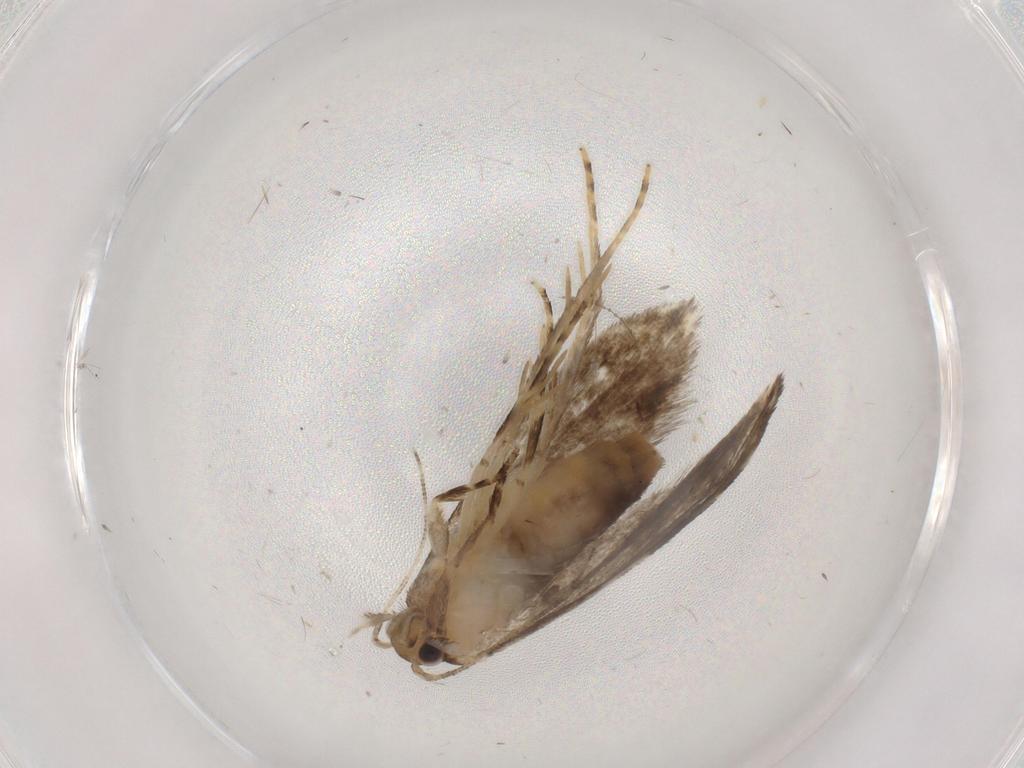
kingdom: Animalia
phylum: Arthropoda
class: Insecta
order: Lepidoptera
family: Tineidae
